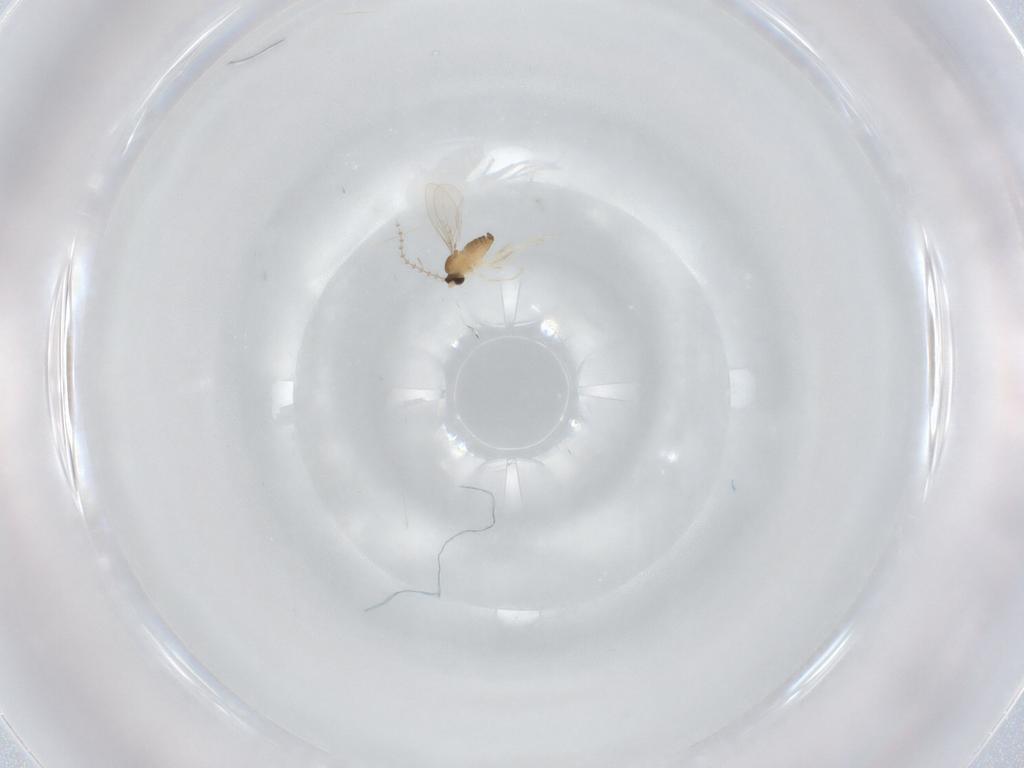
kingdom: Animalia
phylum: Arthropoda
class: Insecta
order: Diptera
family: Cecidomyiidae
